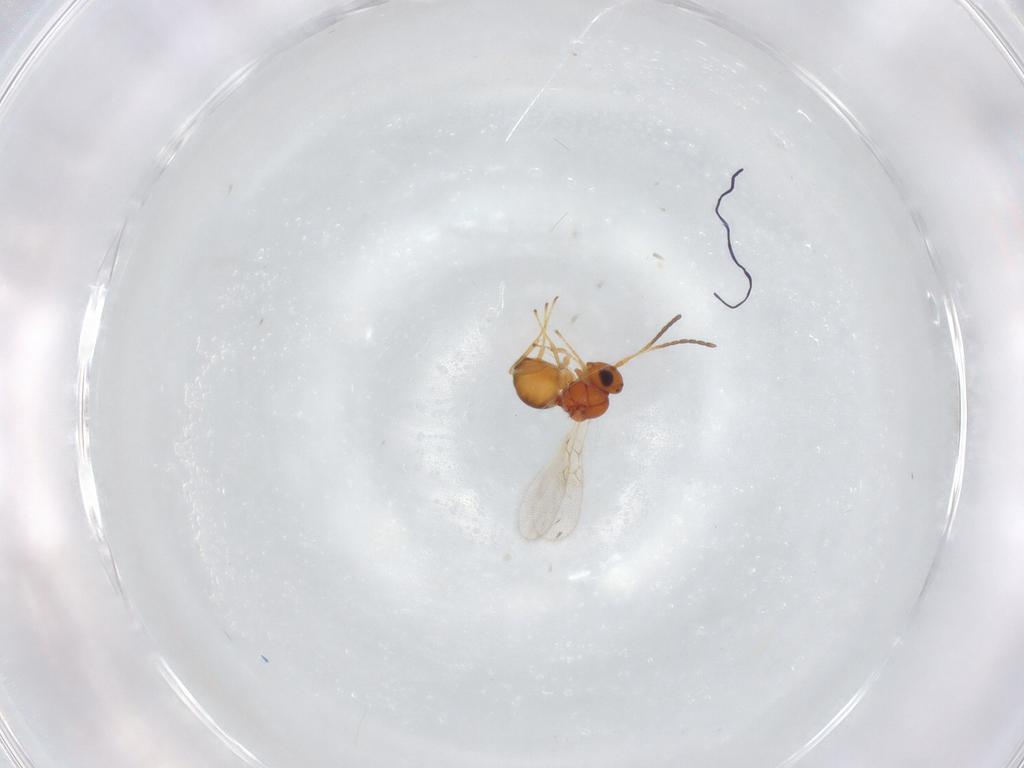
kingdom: Animalia
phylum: Arthropoda
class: Insecta
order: Hymenoptera
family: Figitidae
